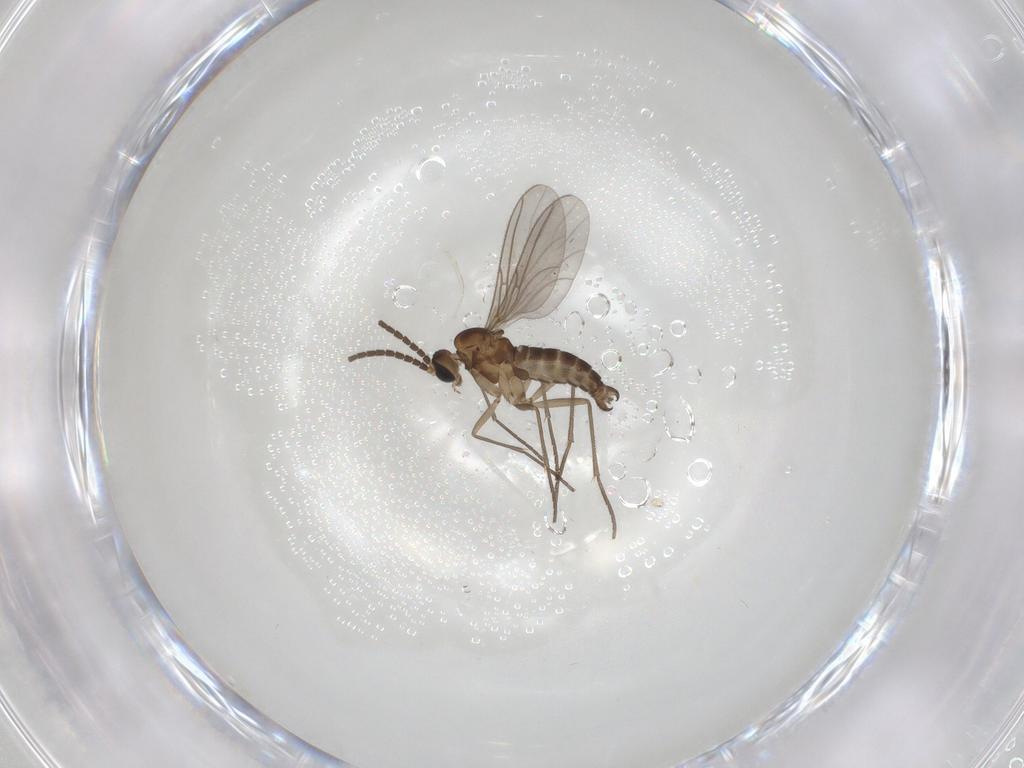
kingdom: Animalia
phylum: Arthropoda
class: Insecta
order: Diptera
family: Sciaridae
